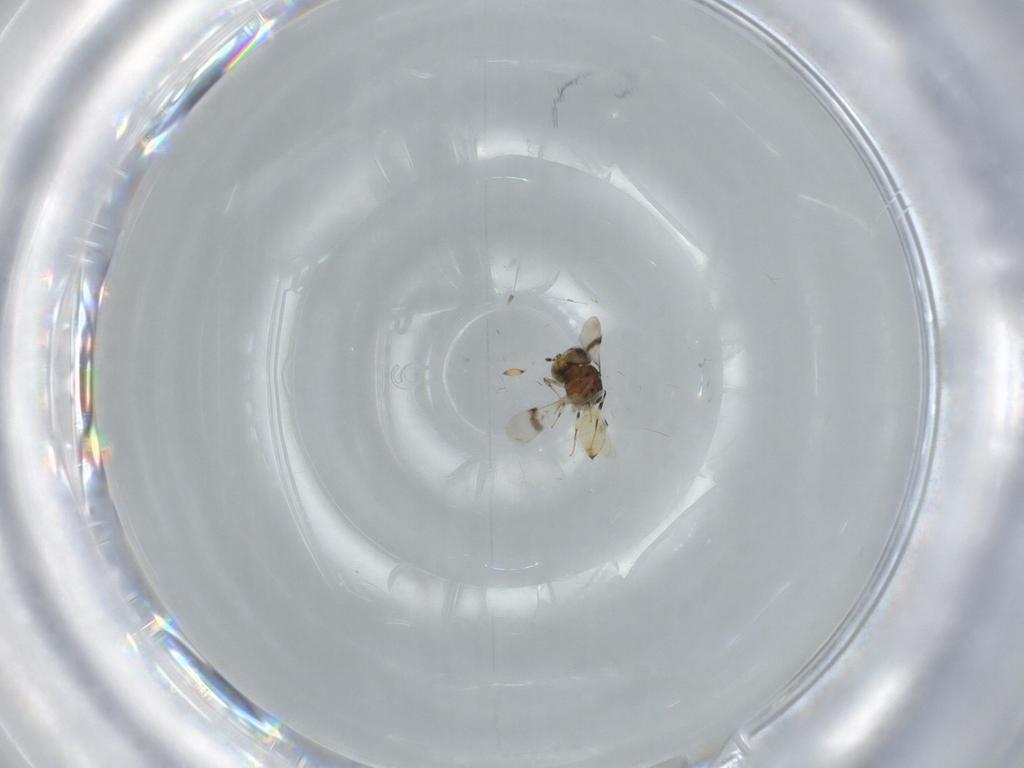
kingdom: Animalia
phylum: Arthropoda
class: Insecta
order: Hymenoptera
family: Scelionidae
